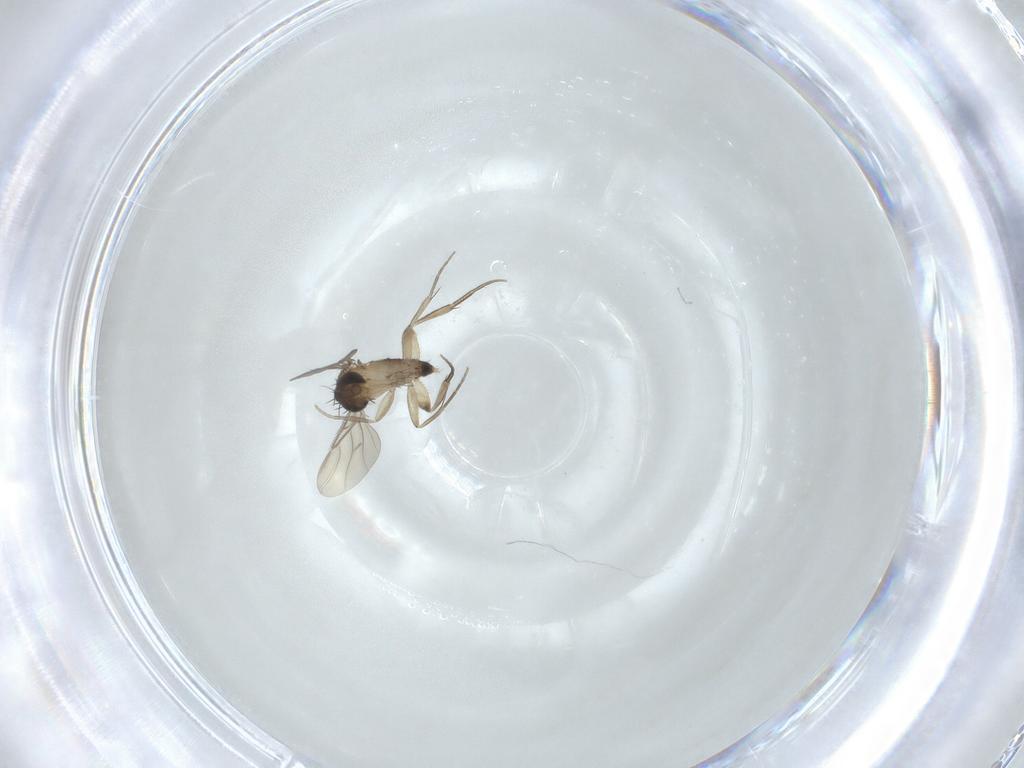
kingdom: Animalia
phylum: Arthropoda
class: Insecta
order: Diptera
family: Phoridae
